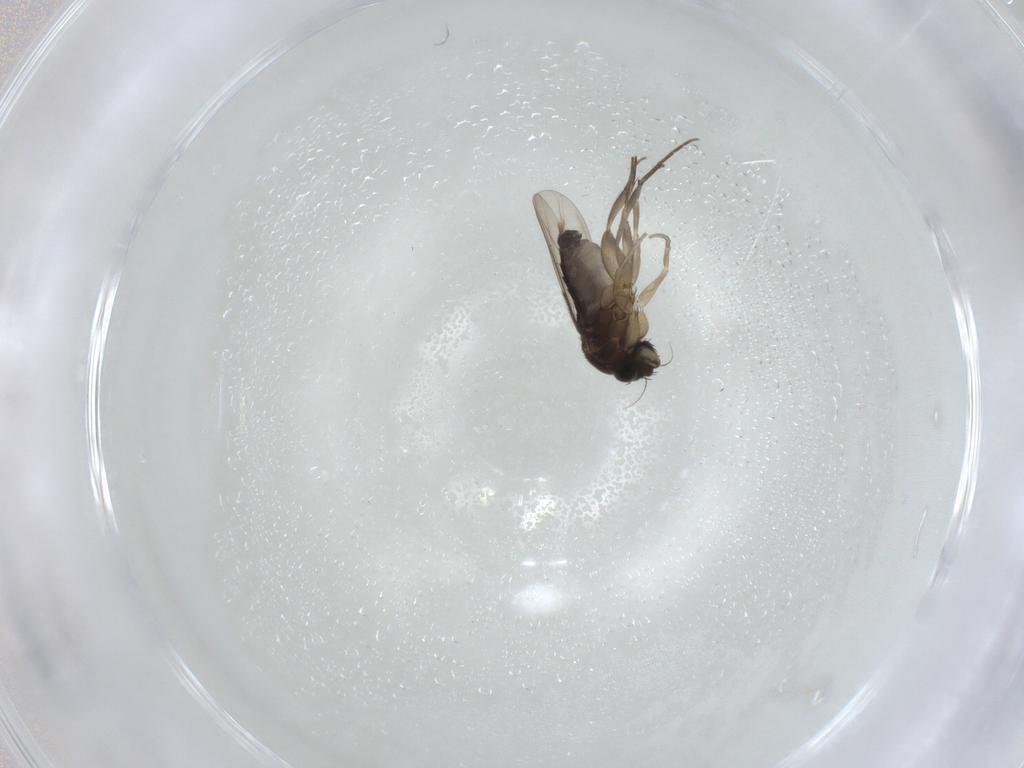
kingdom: Animalia
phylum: Arthropoda
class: Insecta
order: Diptera
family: Phoridae
